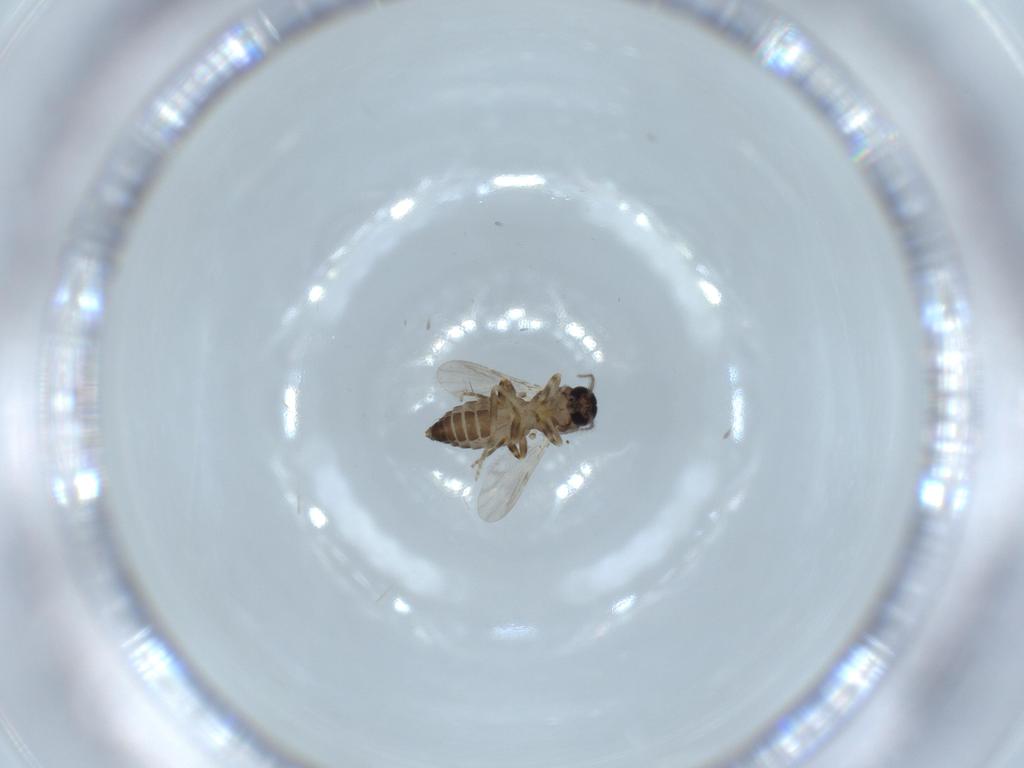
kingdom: Animalia
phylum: Arthropoda
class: Insecta
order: Diptera
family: Ceratopogonidae
